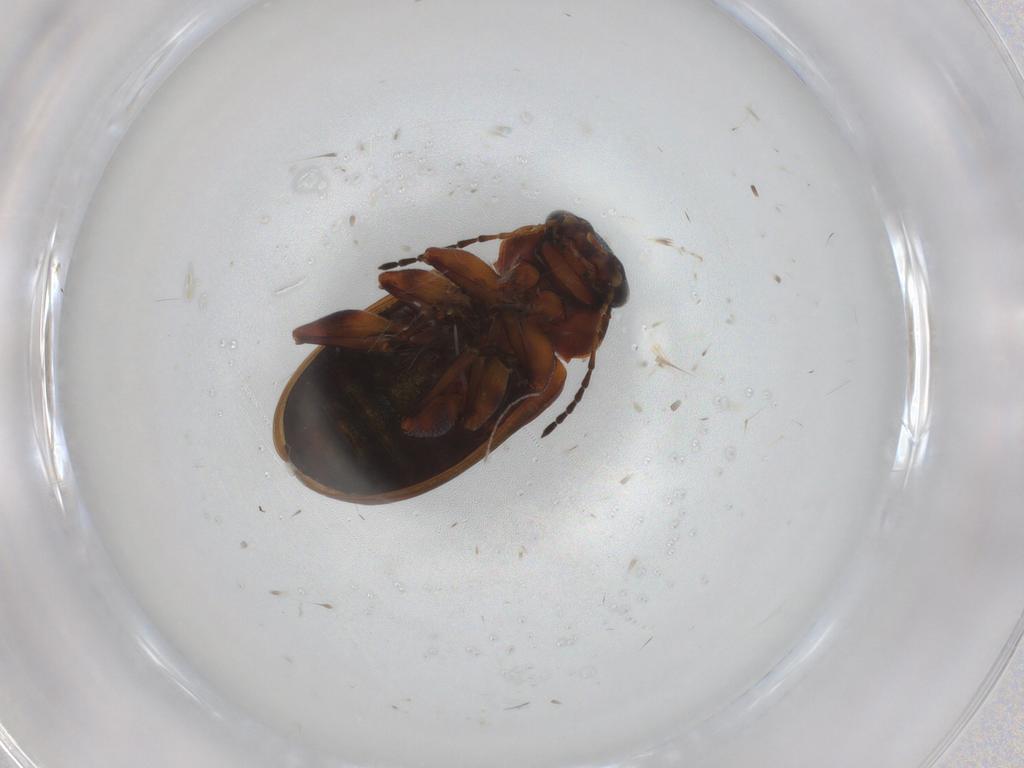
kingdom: Animalia
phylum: Arthropoda
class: Insecta
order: Coleoptera
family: Chrysomelidae
